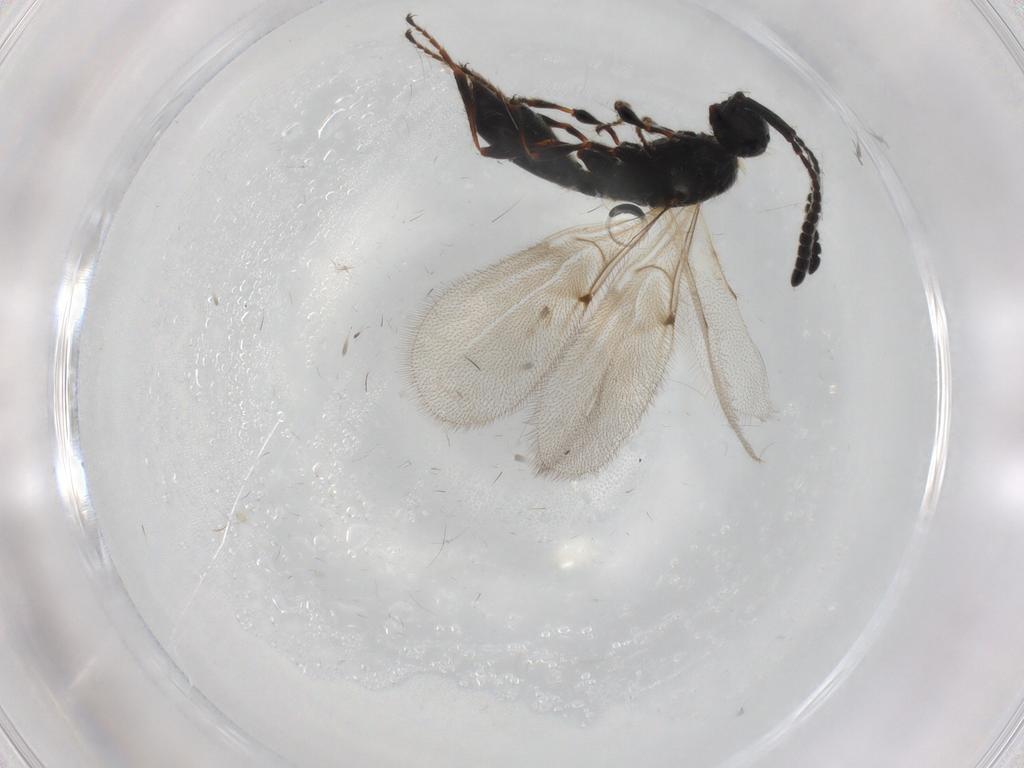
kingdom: Animalia
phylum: Arthropoda
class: Insecta
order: Hymenoptera
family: Diapriidae
